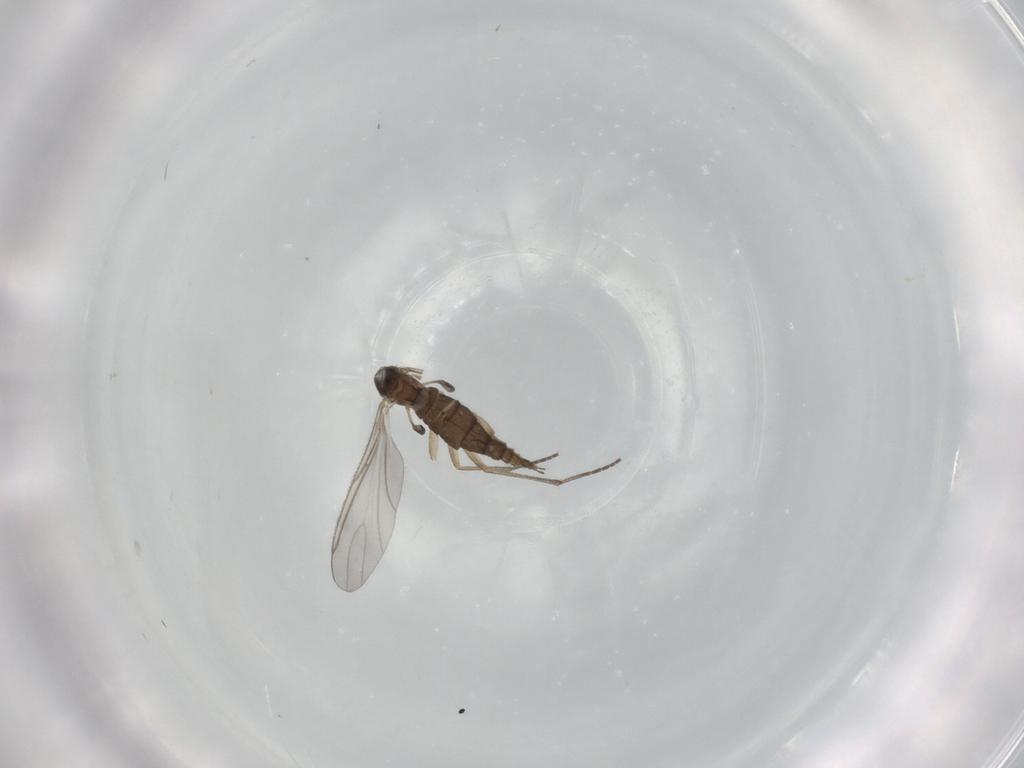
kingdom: Animalia
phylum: Arthropoda
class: Insecta
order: Diptera
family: Sciaridae
